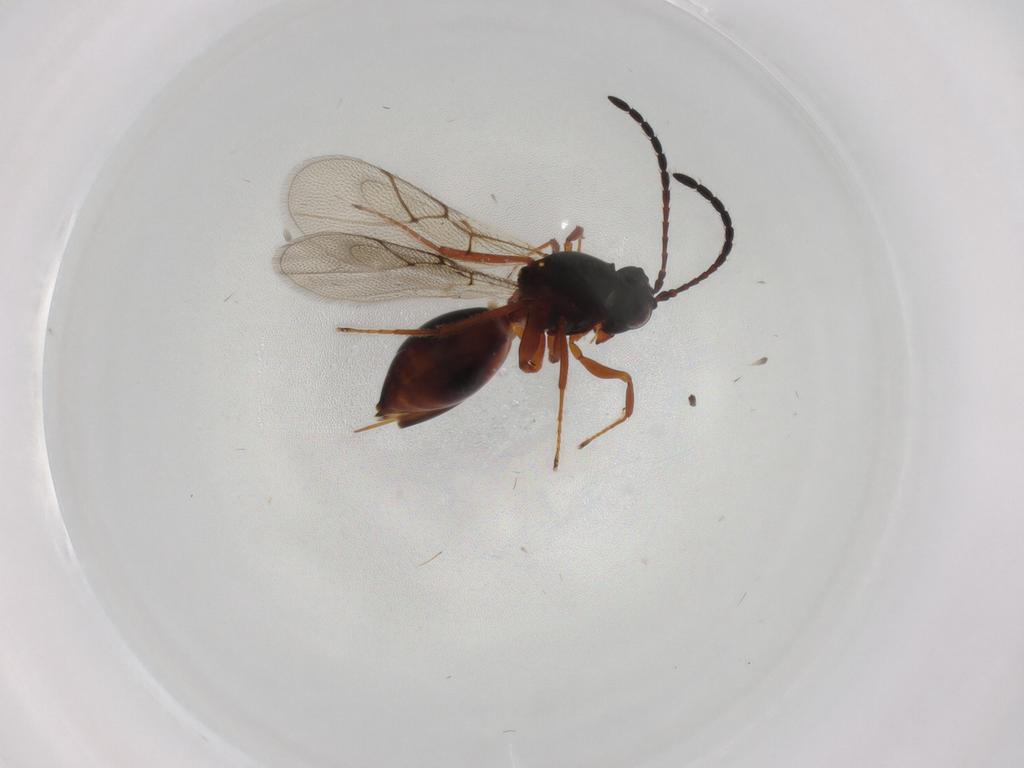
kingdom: Animalia
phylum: Arthropoda
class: Insecta
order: Hymenoptera
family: Figitidae
